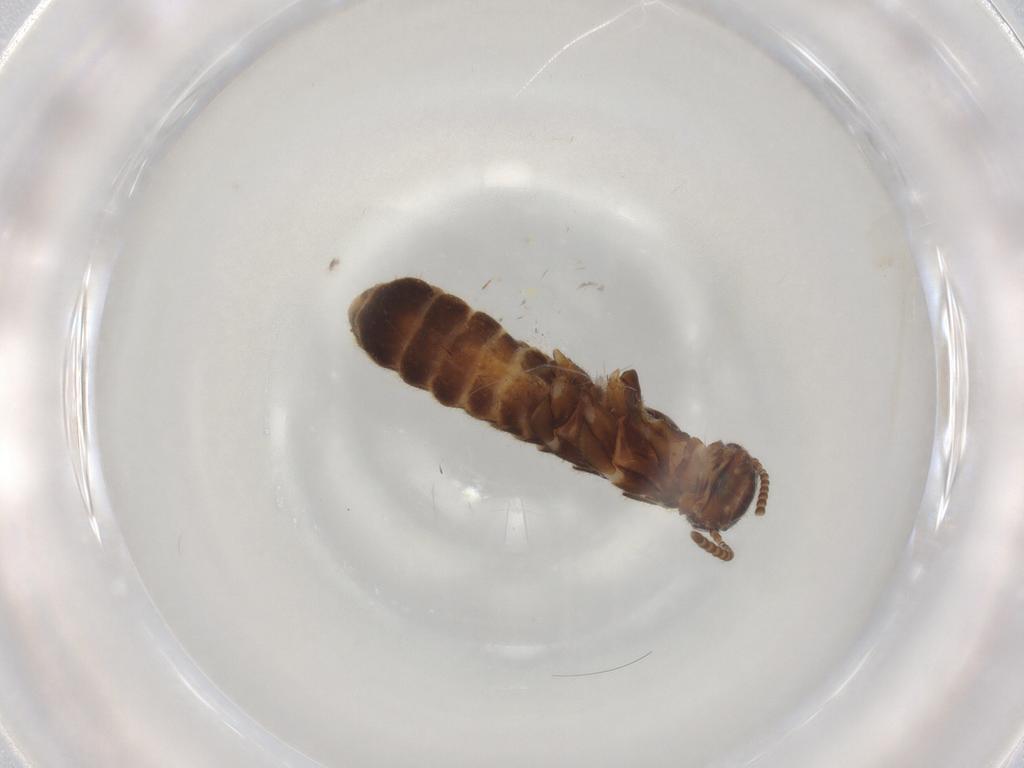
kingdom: Animalia
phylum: Arthropoda
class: Insecta
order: Blattodea
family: Termitidae
